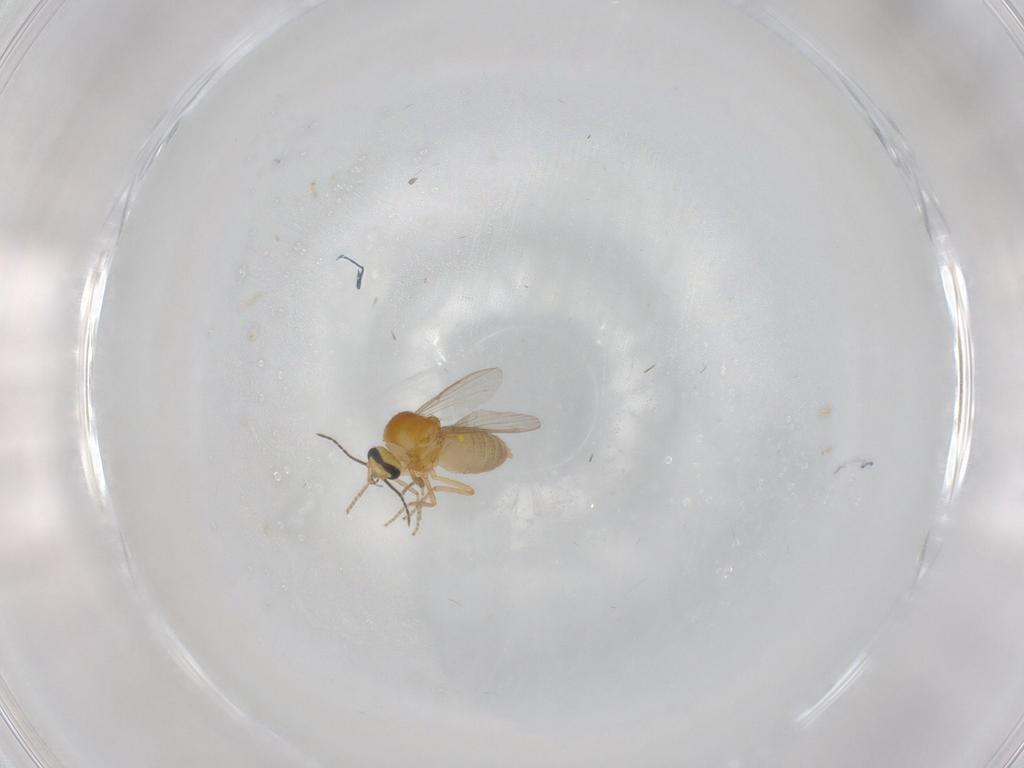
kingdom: Animalia
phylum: Arthropoda
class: Insecta
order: Diptera
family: Ceratopogonidae
